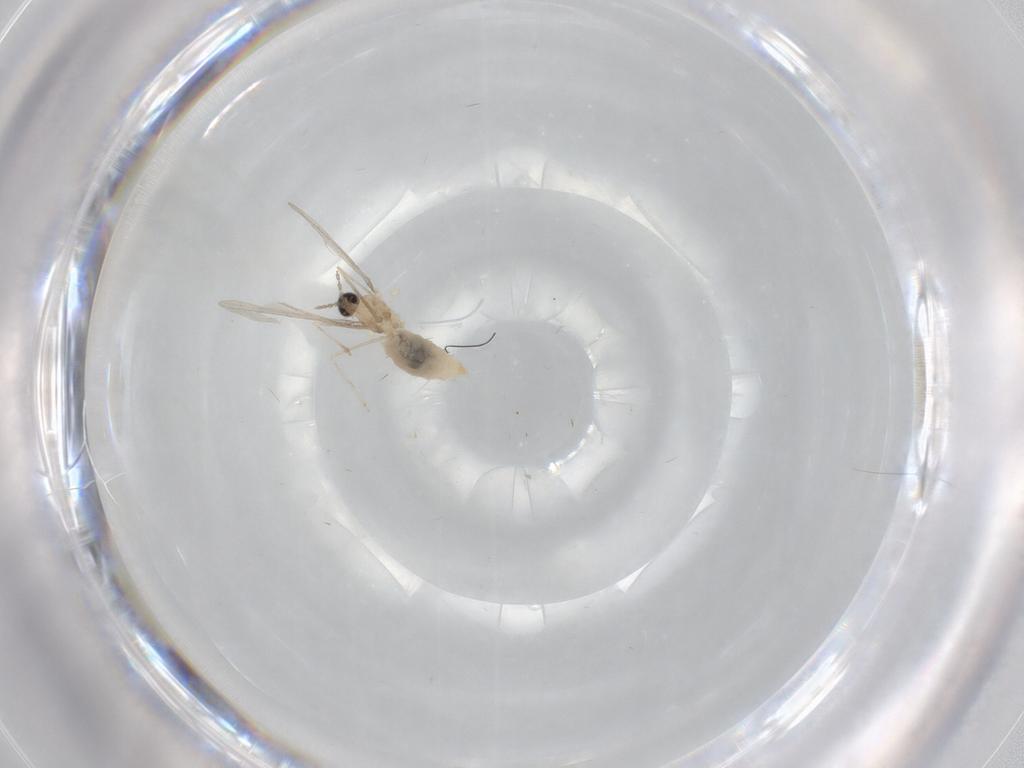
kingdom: Animalia
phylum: Arthropoda
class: Insecta
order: Diptera
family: Cecidomyiidae
